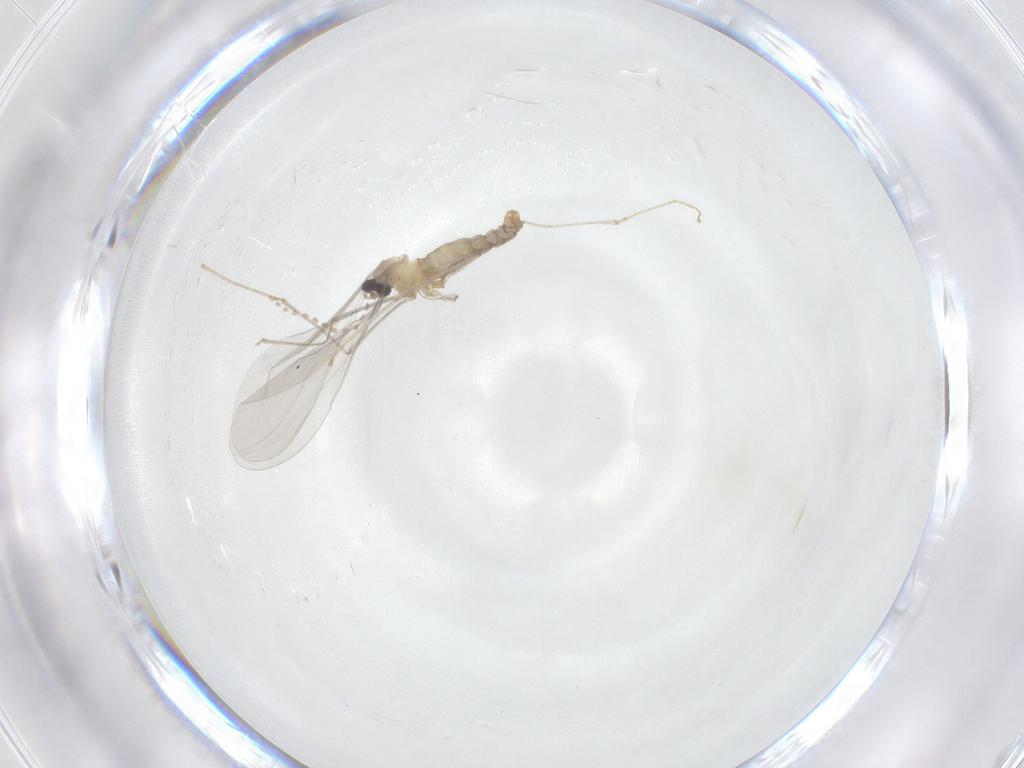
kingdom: Animalia
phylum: Arthropoda
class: Insecta
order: Diptera
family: Cecidomyiidae
